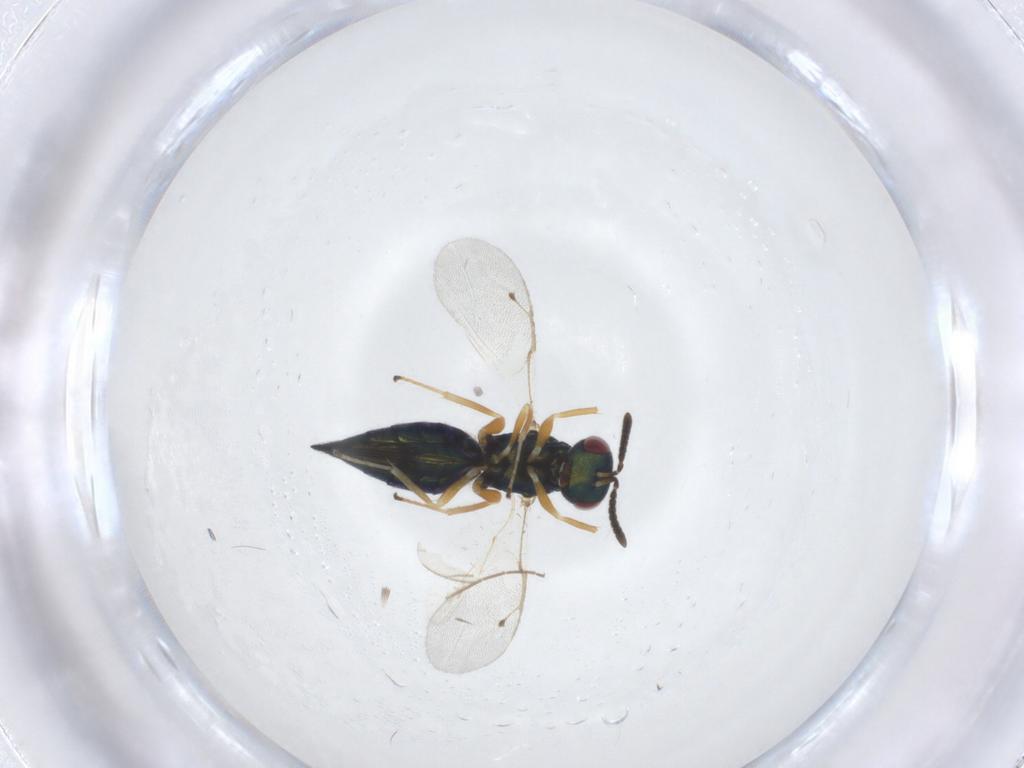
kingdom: Animalia
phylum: Arthropoda
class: Insecta
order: Hymenoptera
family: Pteromalidae
